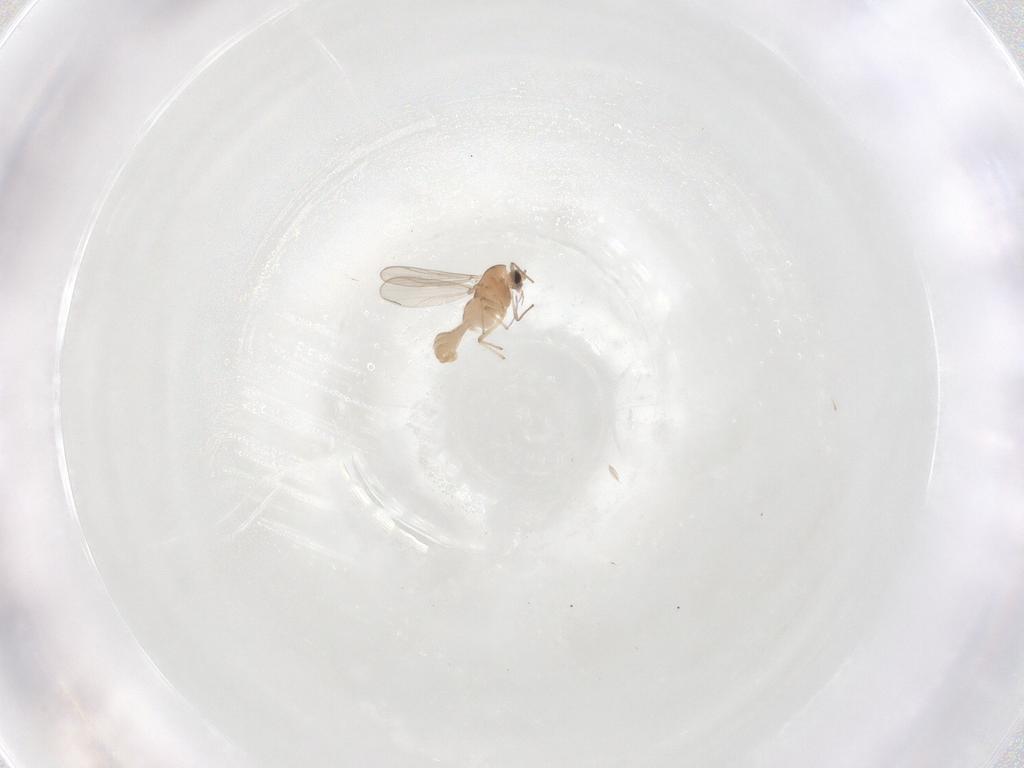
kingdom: Animalia
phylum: Arthropoda
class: Insecta
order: Diptera
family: Chironomidae
